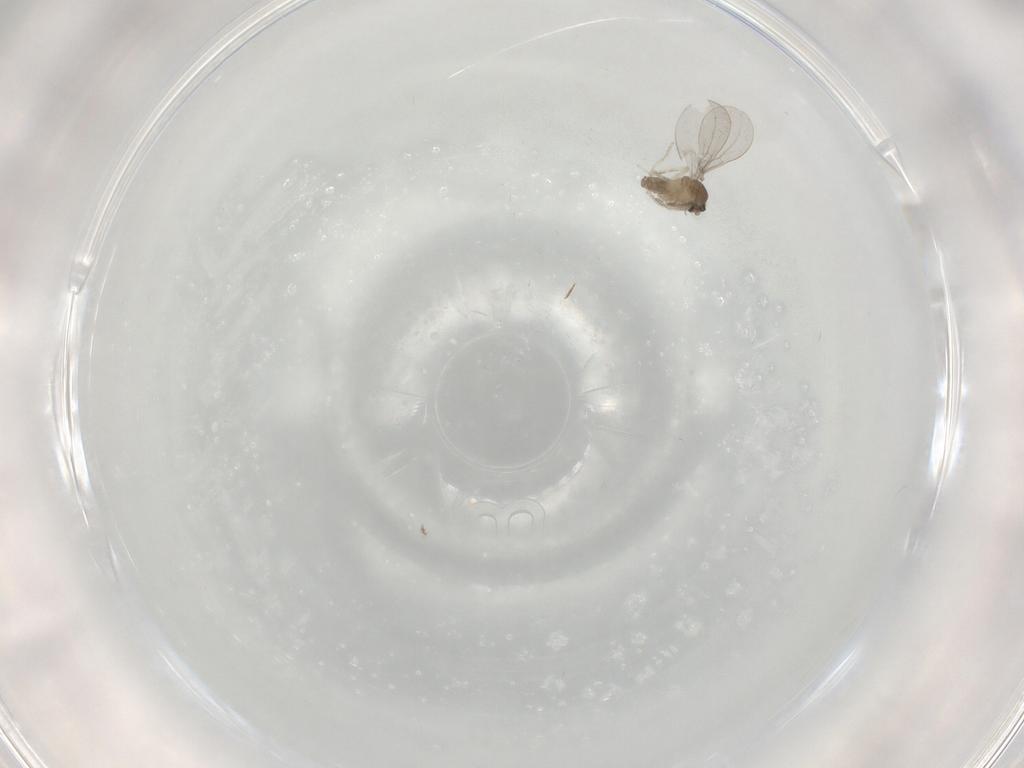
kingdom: Animalia
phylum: Arthropoda
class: Insecta
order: Diptera
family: Cecidomyiidae
